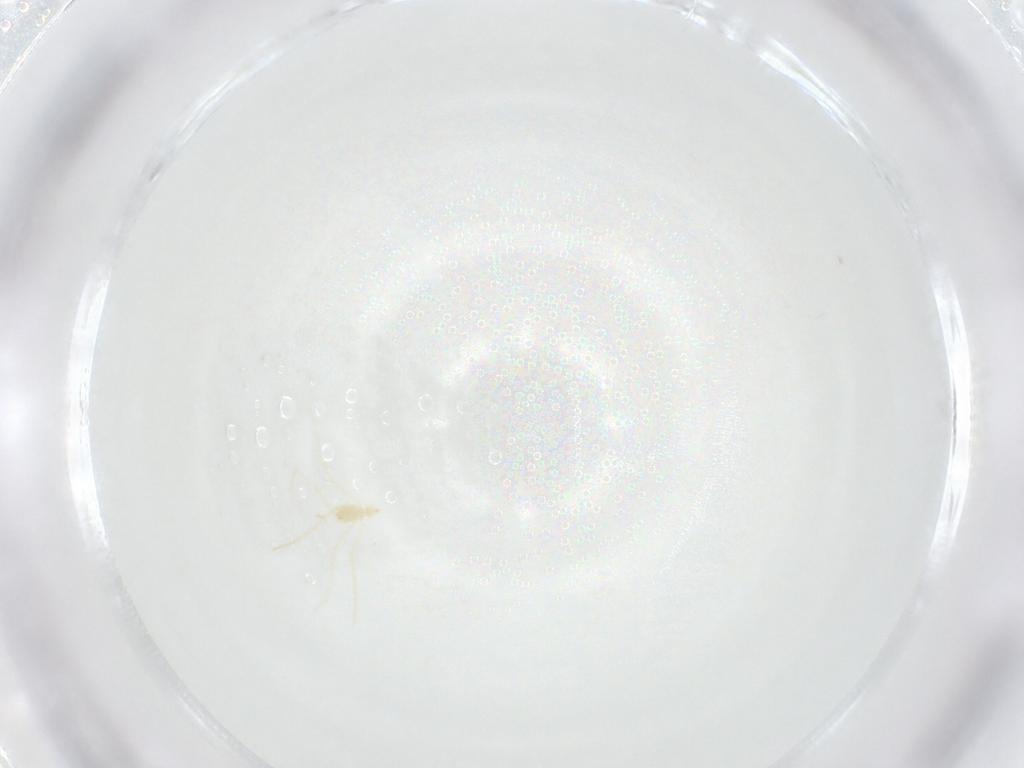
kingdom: Animalia
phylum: Arthropoda
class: Arachnida
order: Trombidiformes
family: Erythraeidae
